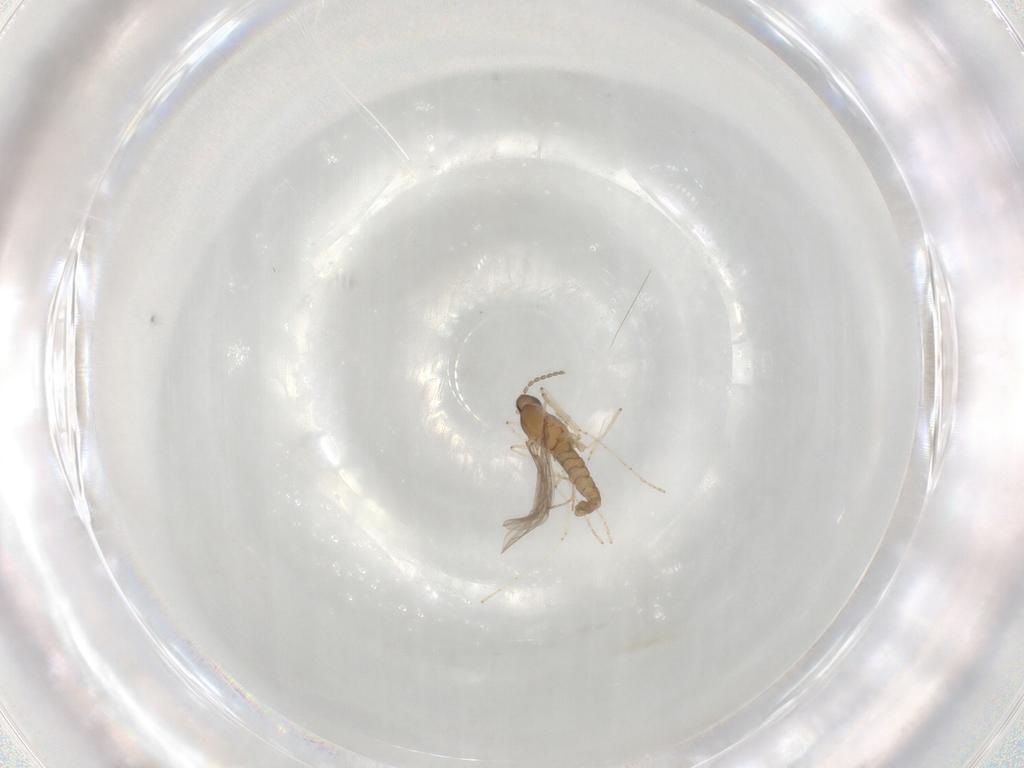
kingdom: Animalia
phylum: Arthropoda
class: Insecta
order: Diptera
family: Cecidomyiidae
